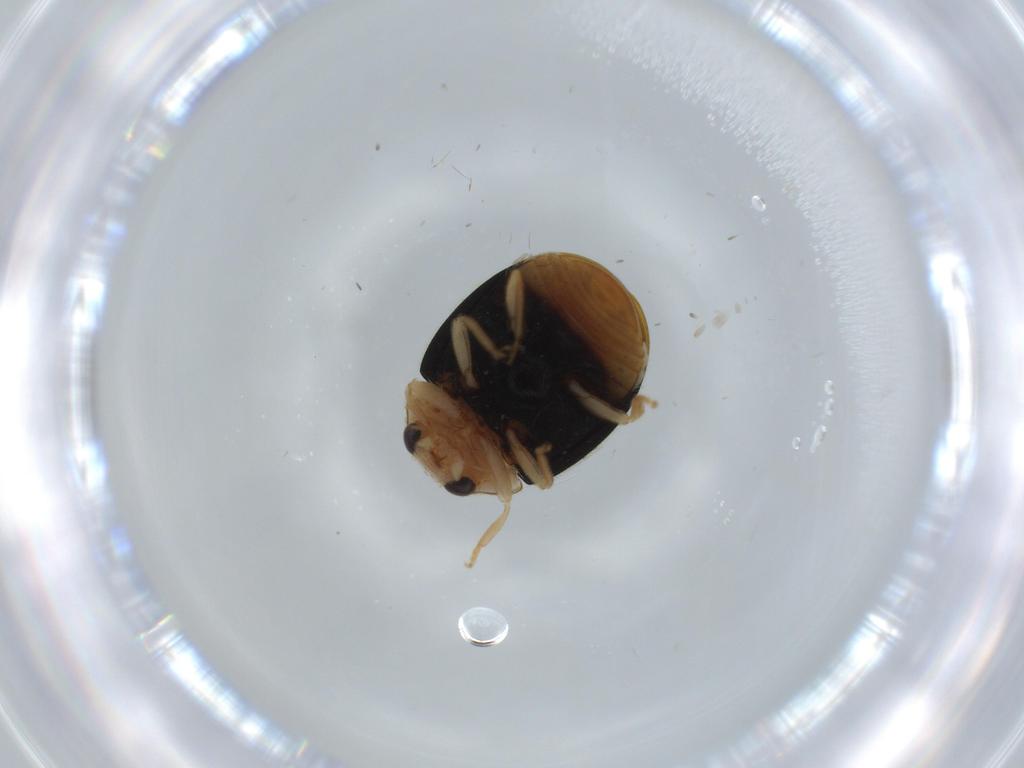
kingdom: Animalia
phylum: Arthropoda
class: Insecta
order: Coleoptera
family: Coccinellidae
